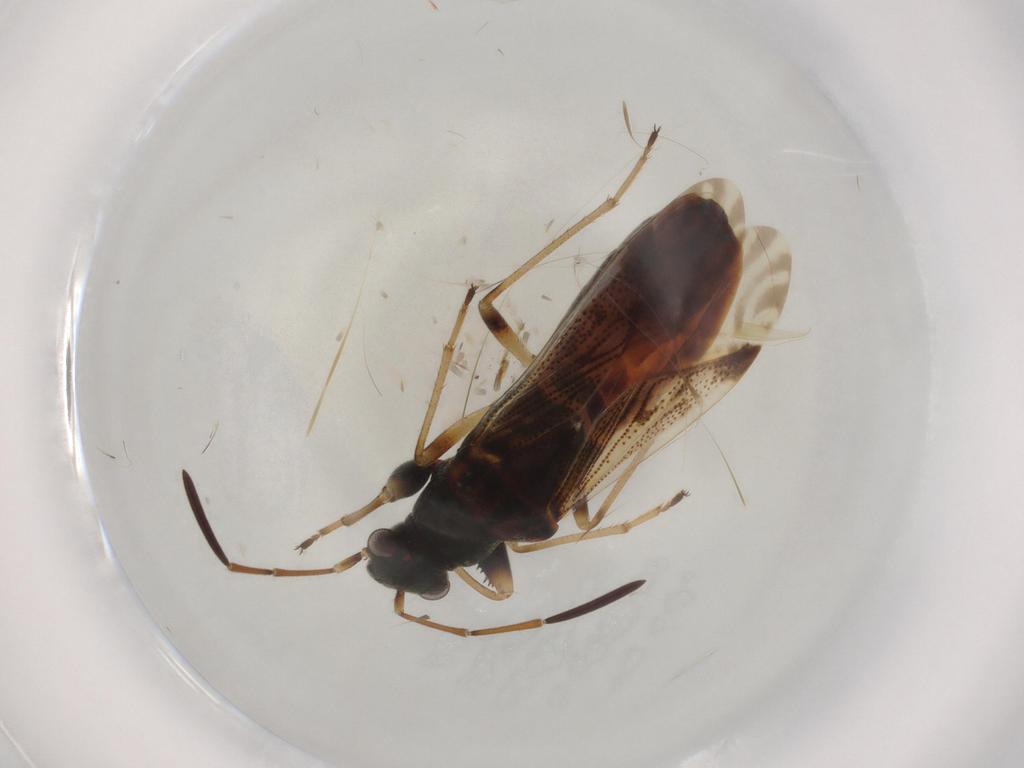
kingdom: Animalia
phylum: Arthropoda
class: Insecta
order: Hemiptera
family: Rhyparochromidae
